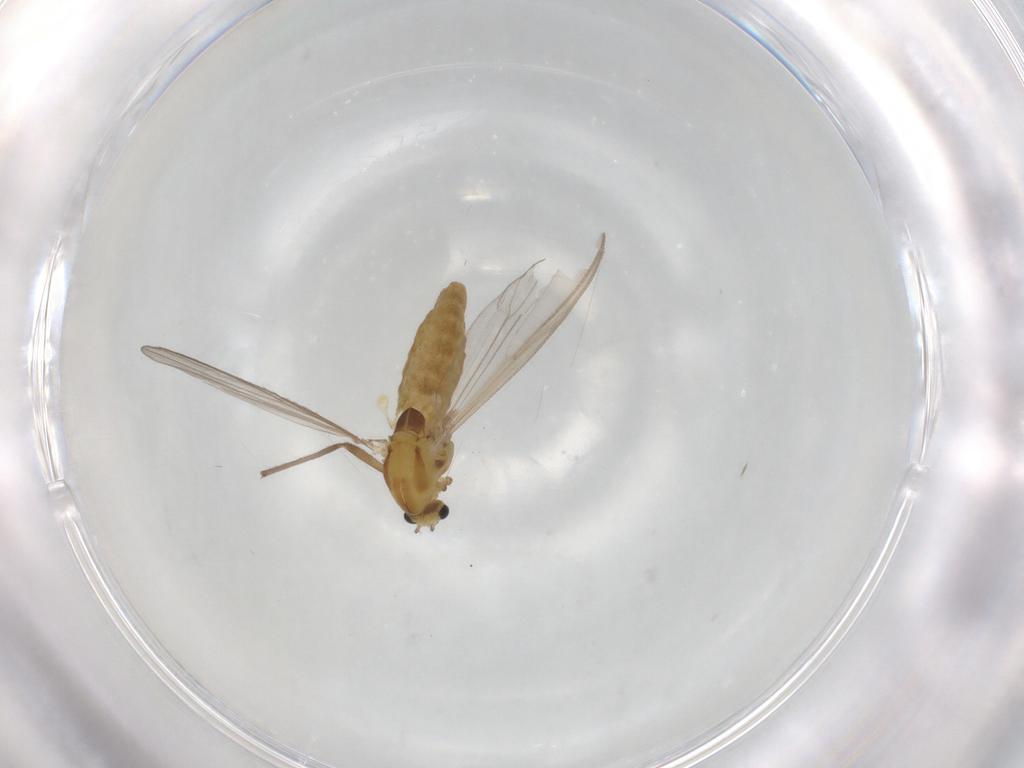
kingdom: Animalia
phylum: Arthropoda
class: Insecta
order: Diptera
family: Chironomidae
